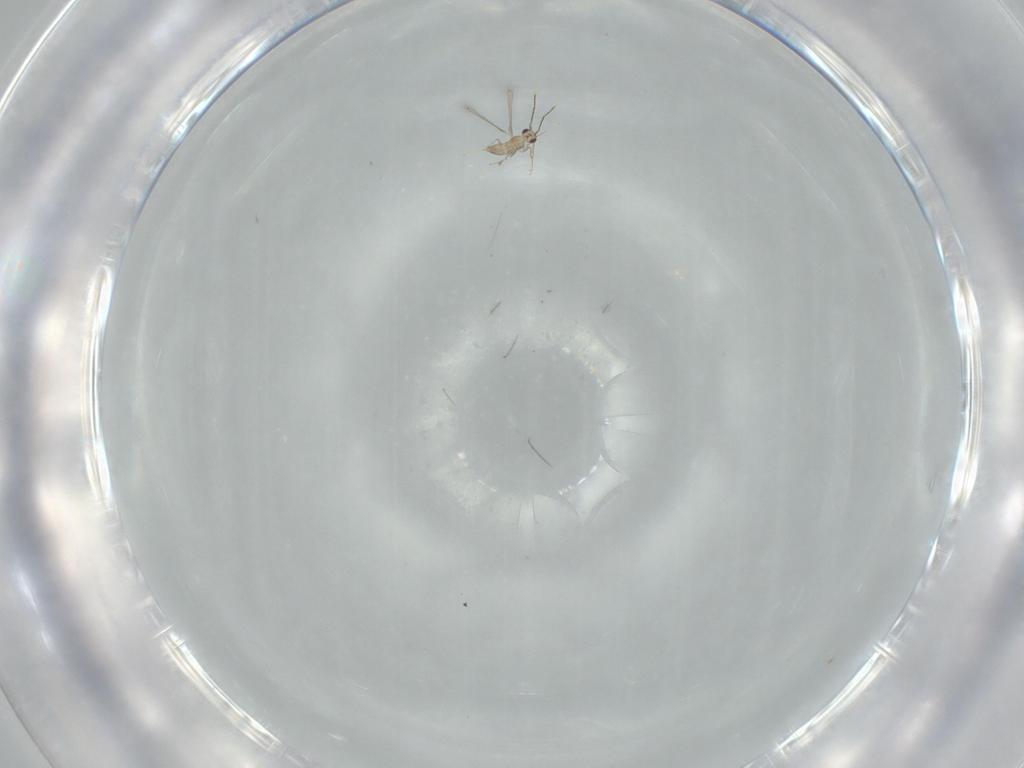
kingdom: Animalia
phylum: Arthropoda
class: Insecta
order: Hymenoptera
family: Mymaridae
